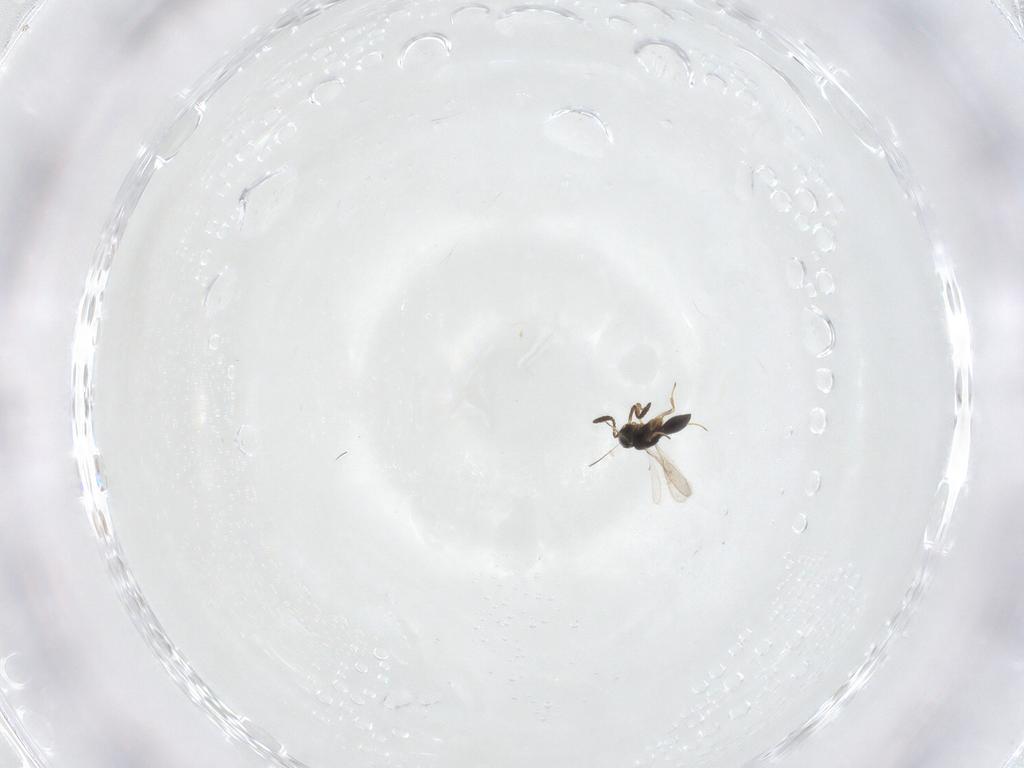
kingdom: Animalia
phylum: Arthropoda
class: Insecta
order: Hymenoptera
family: Scelionidae
